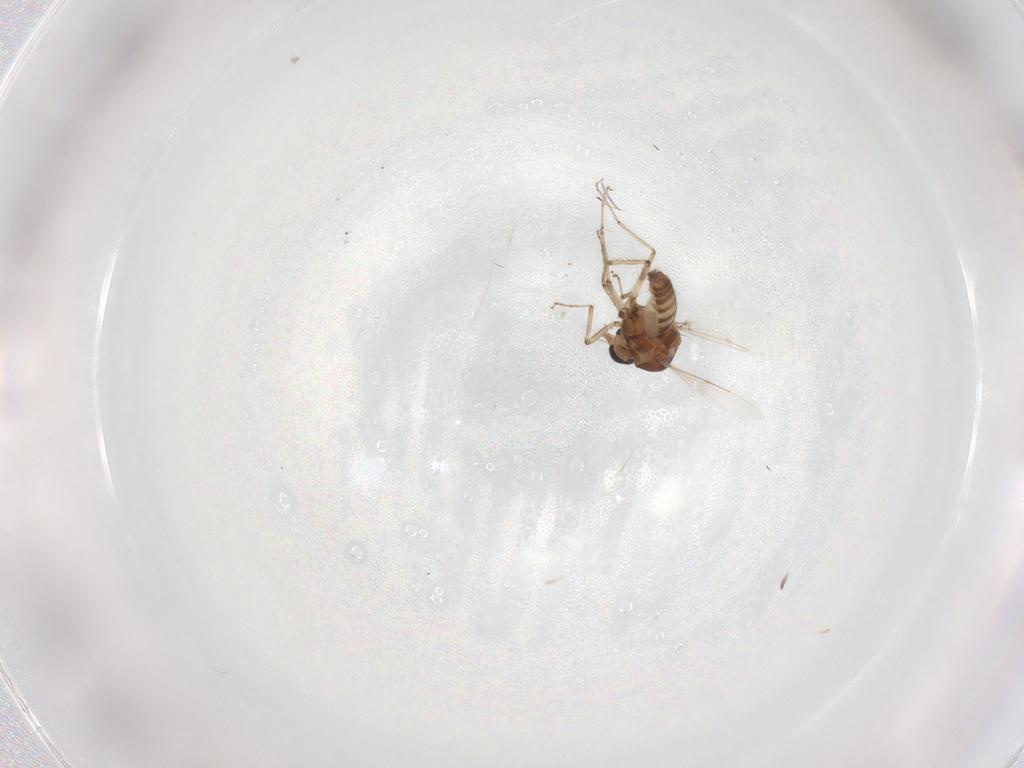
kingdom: Animalia
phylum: Arthropoda
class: Insecta
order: Diptera
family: Ceratopogonidae
